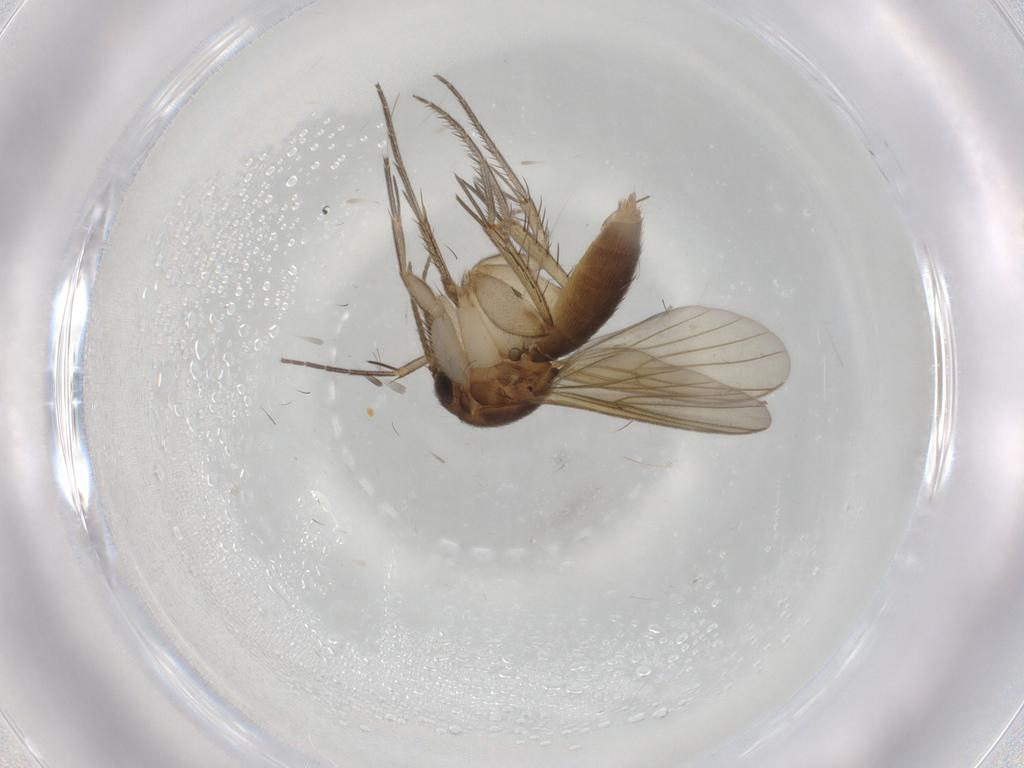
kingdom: Animalia
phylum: Arthropoda
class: Insecta
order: Diptera
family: Mycetophilidae
